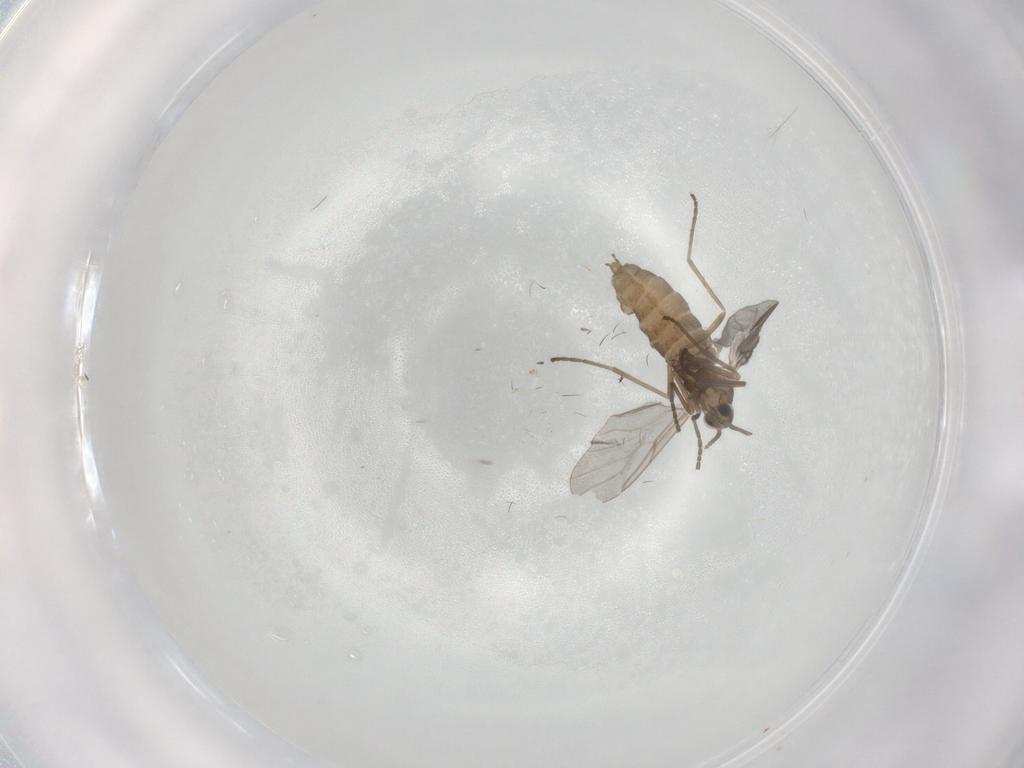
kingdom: Animalia
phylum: Arthropoda
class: Insecta
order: Diptera
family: Cecidomyiidae
